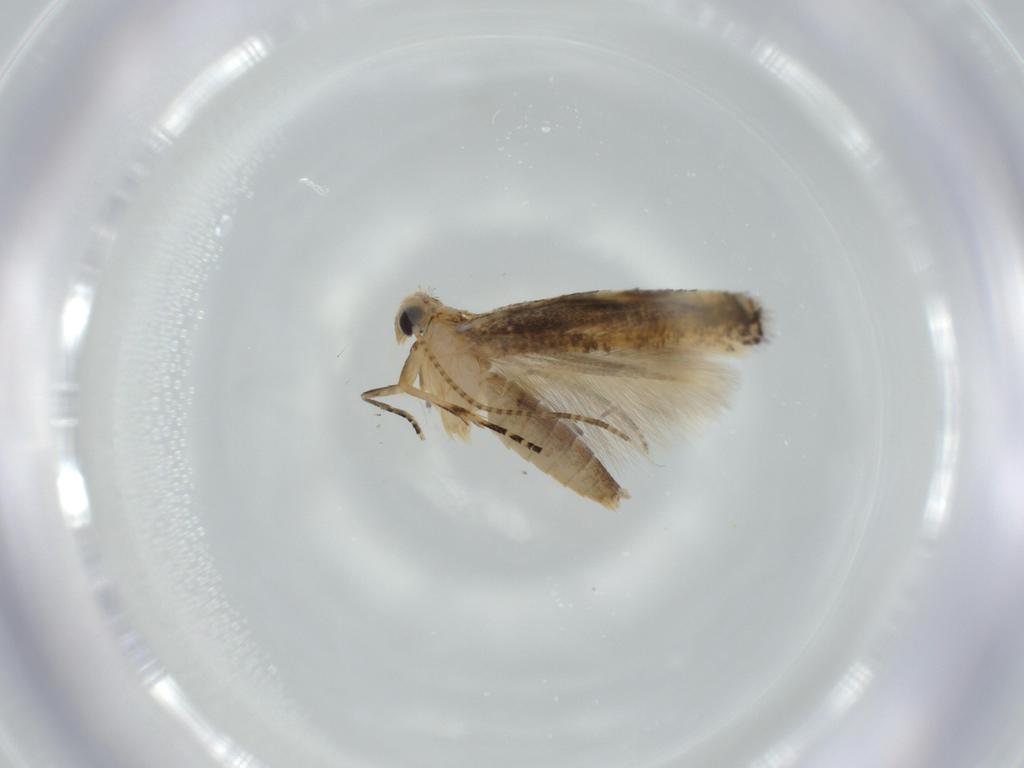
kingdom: Animalia
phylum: Arthropoda
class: Insecta
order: Lepidoptera
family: Bucculatricidae
